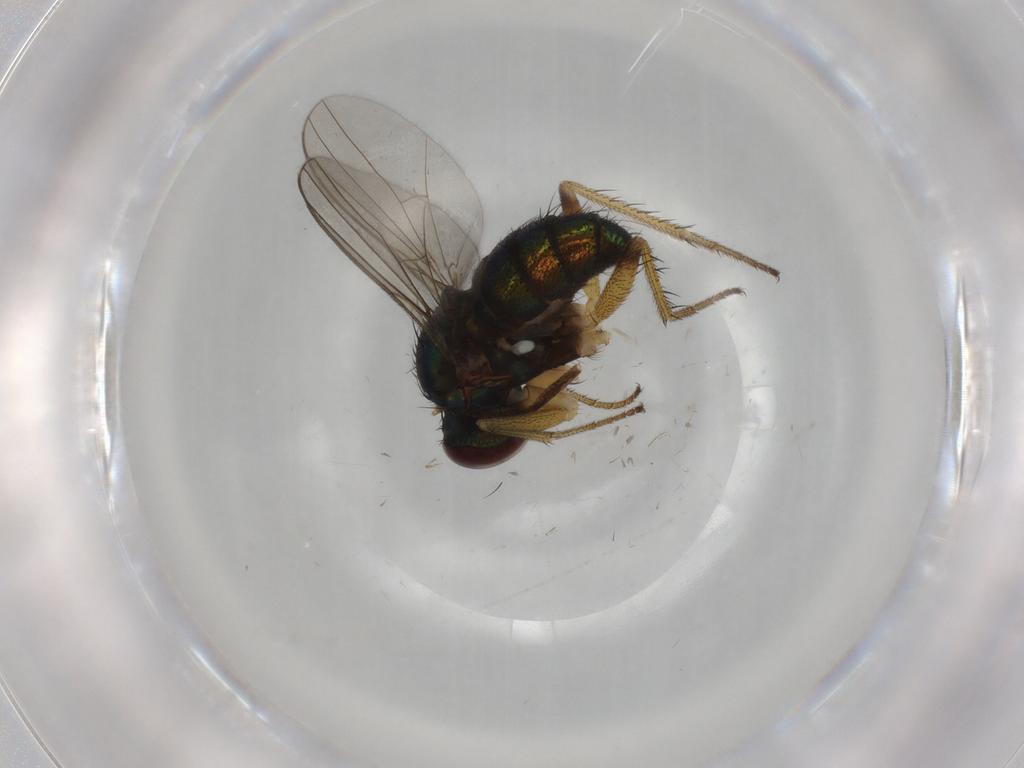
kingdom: Animalia
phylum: Arthropoda
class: Insecta
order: Diptera
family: Dolichopodidae
